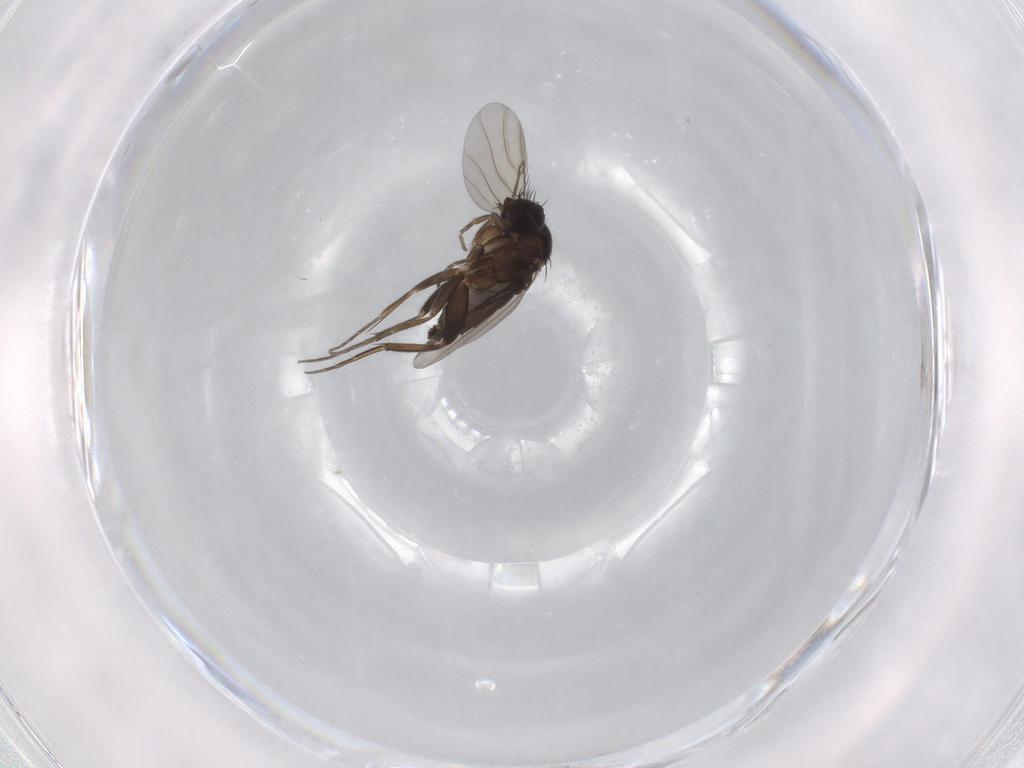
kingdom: Animalia
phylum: Arthropoda
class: Insecta
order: Diptera
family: Phoridae
